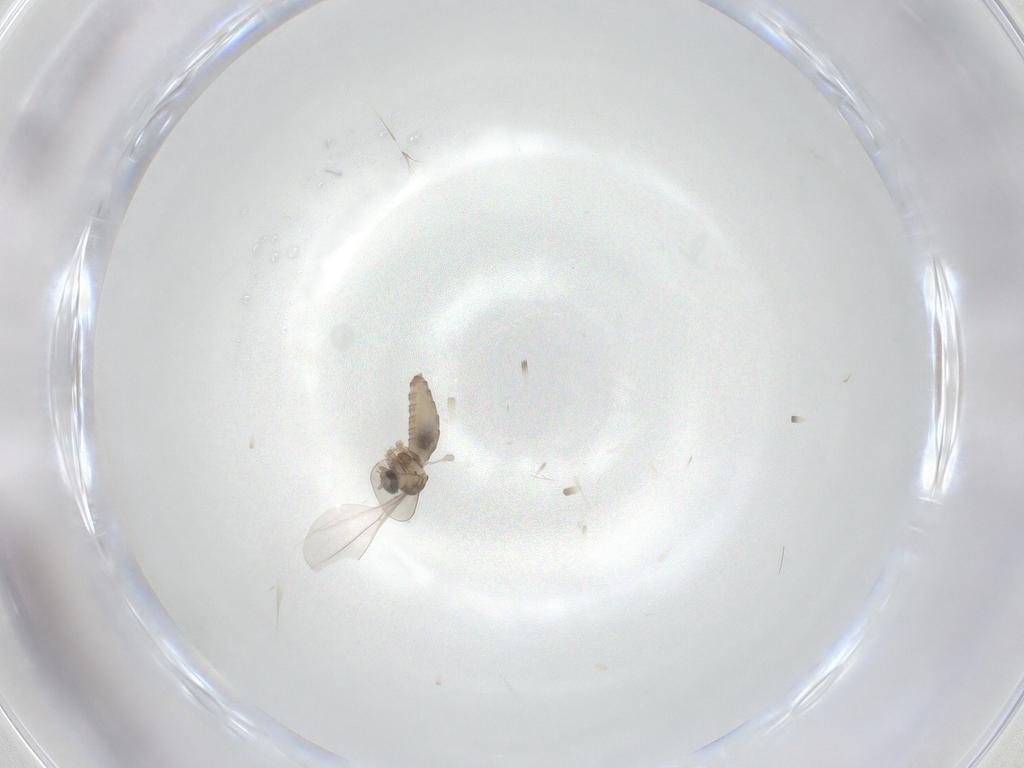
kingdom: Animalia
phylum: Arthropoda
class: Insecta
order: Diptera
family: Cecidomyiidae
